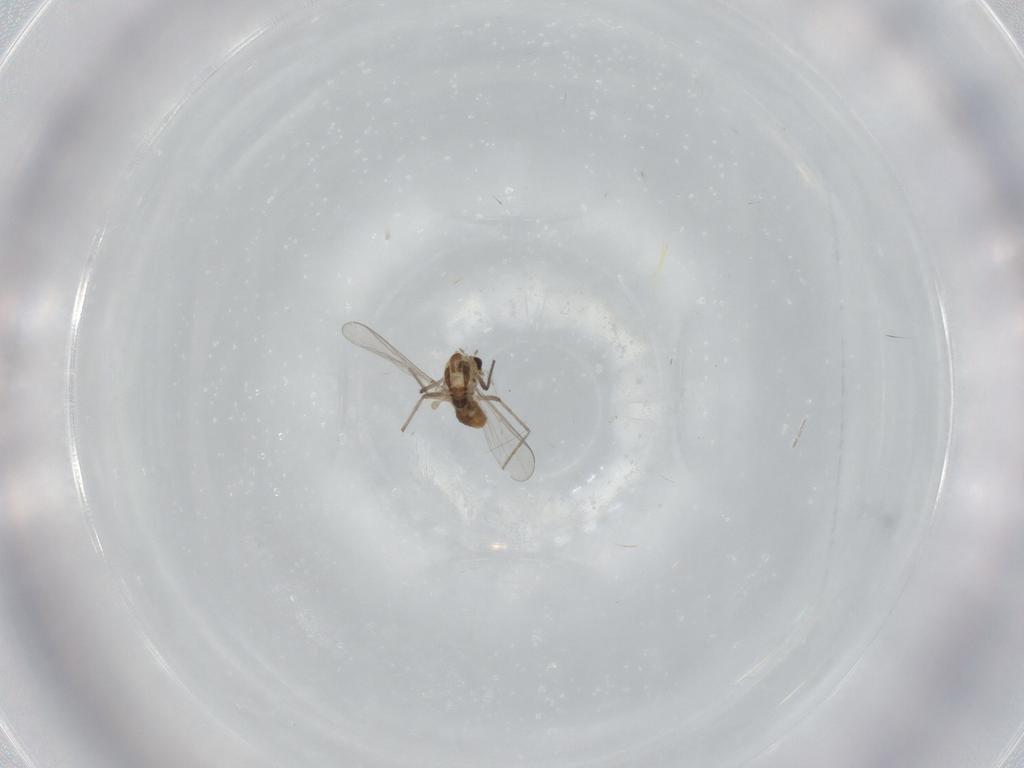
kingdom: Animalia
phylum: Arthropoda
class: Insecta
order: Diptera
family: Chironomidae
